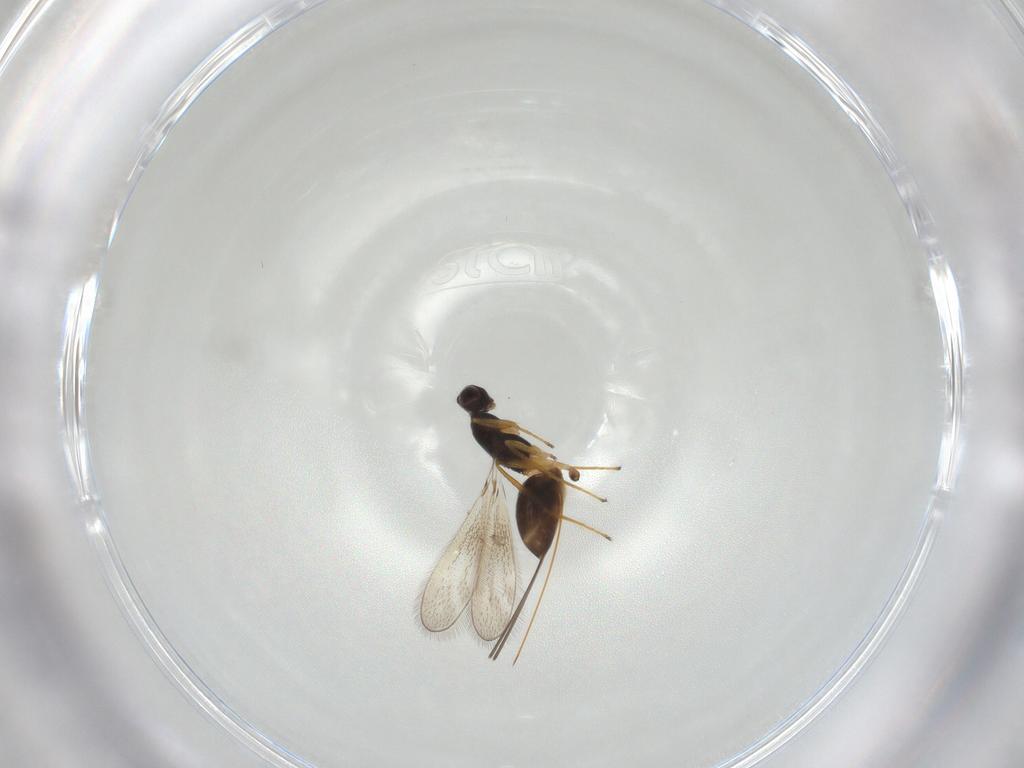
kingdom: Animalia
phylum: Arthropoda
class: Insecta
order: Hymenoptera
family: Mymaridae
